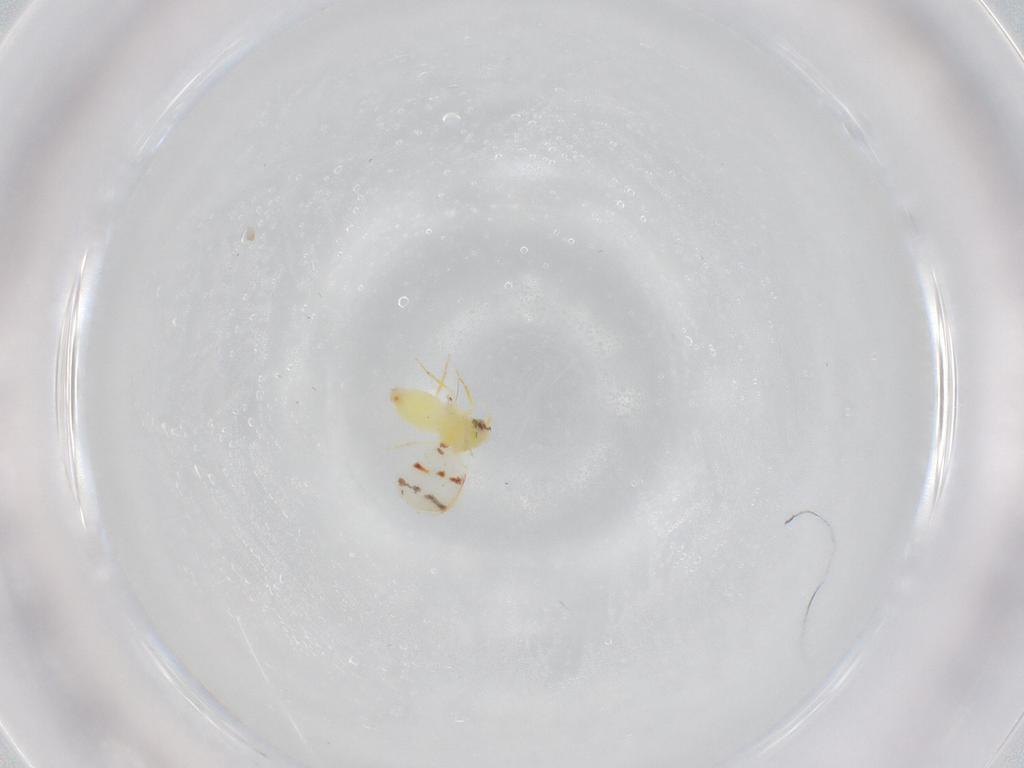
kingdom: Animalia
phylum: Arthropoda
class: Insecta
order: Hemiptera
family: Aleyrodidae
